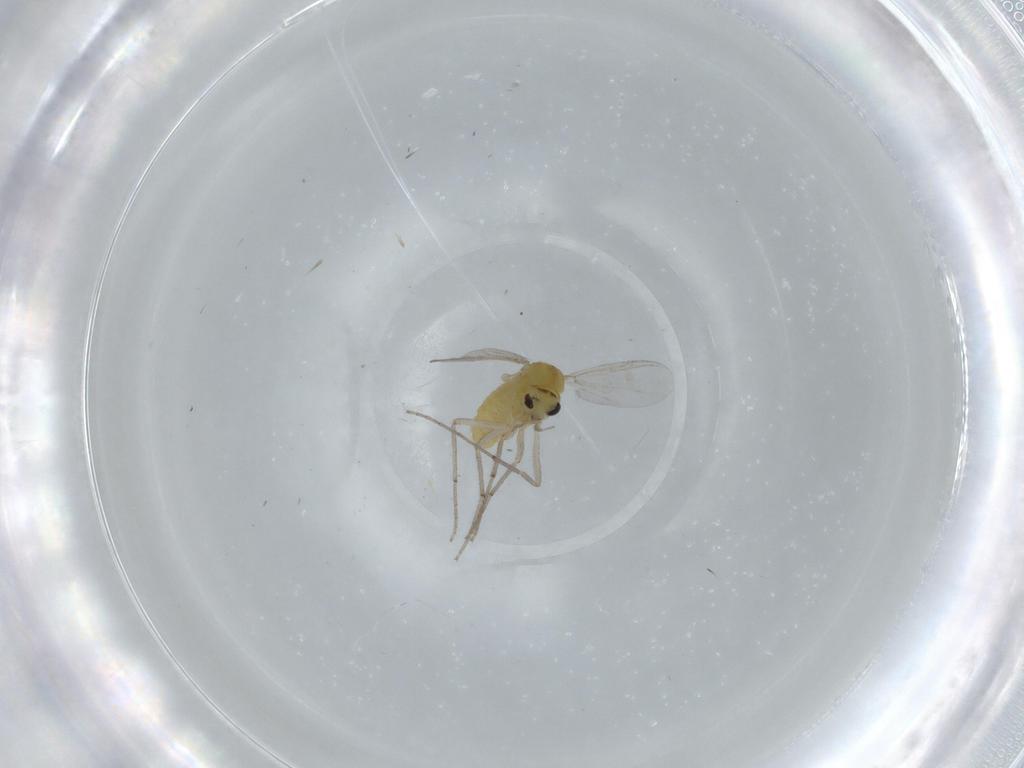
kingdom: Animalia
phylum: Arthropoda
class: Insecta
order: Diptera
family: Chironomidae
